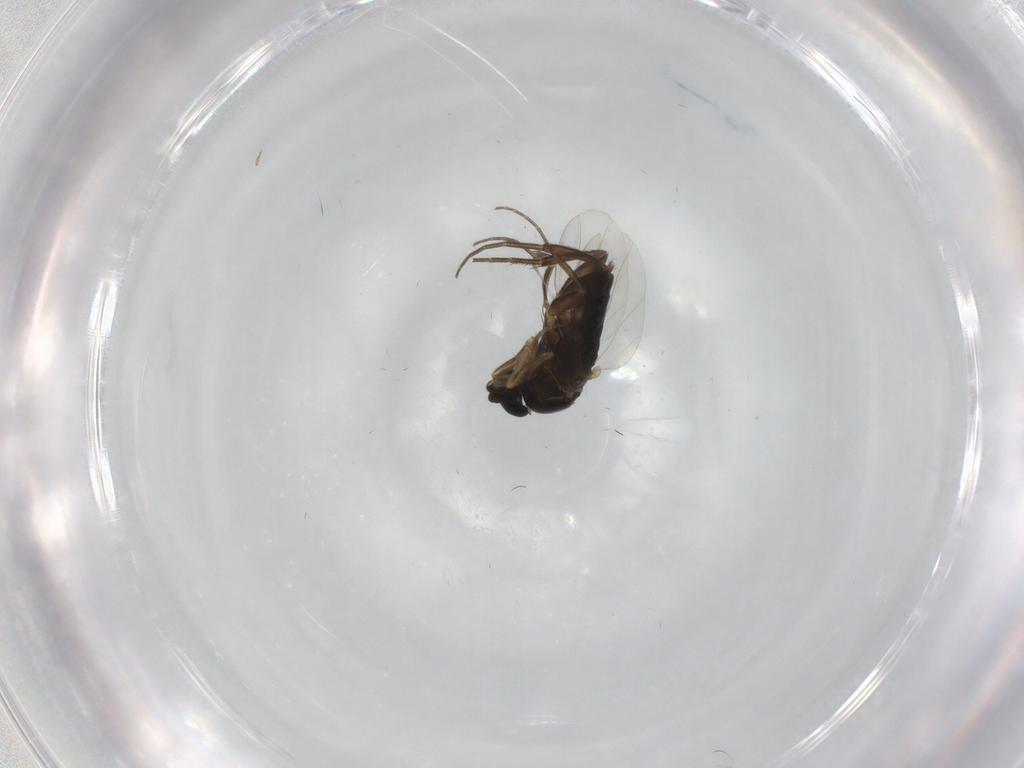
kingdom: Animalia
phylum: Arthropoda
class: Insecta
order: Diptera
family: Phoridae
